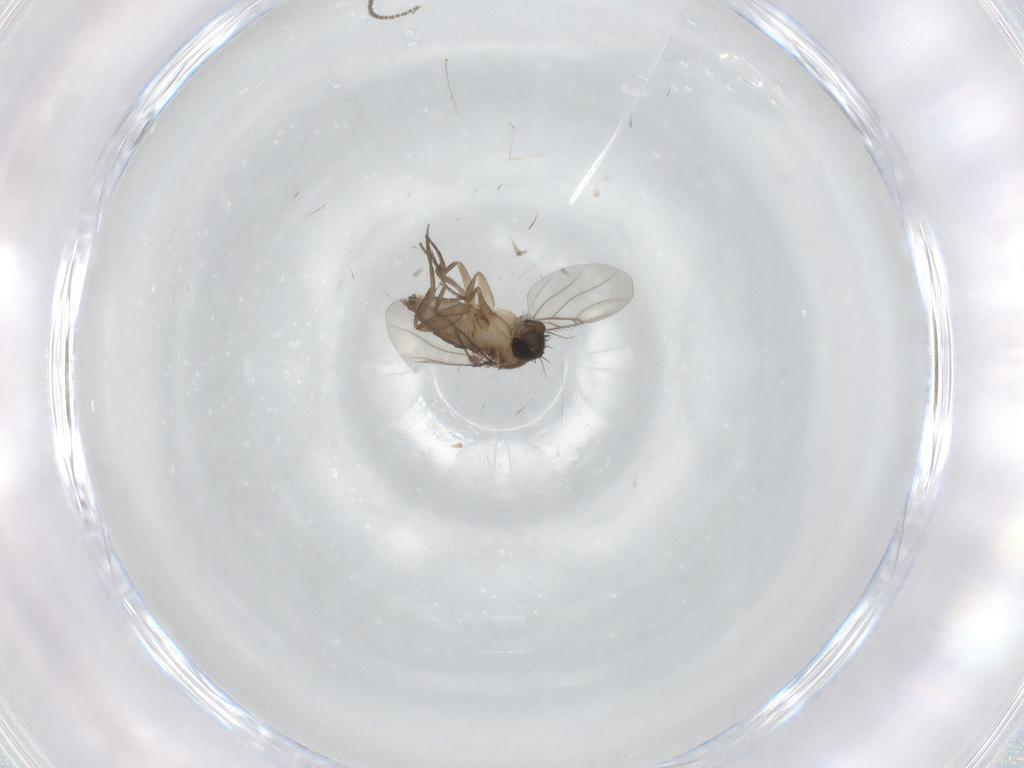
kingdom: Animalia
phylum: Arthropoda
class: Insecta
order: Diptera
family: Phoridae
